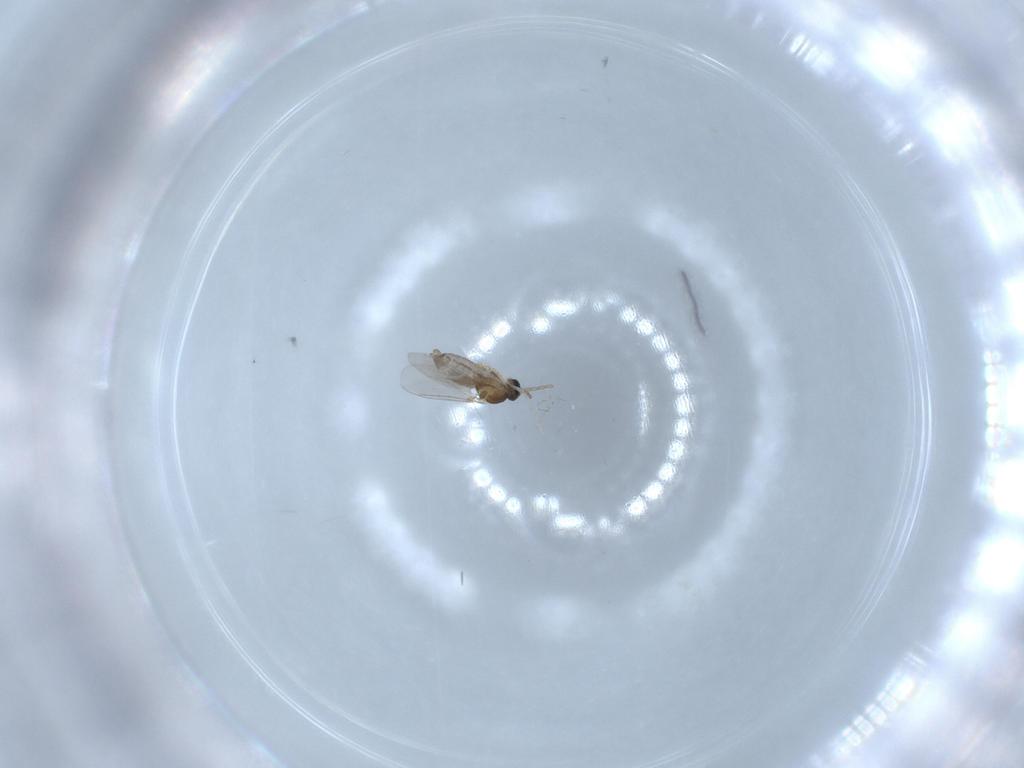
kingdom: Animalia
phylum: Arthropoda
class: Insecta
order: Diptera
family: Cecidomyiidae
